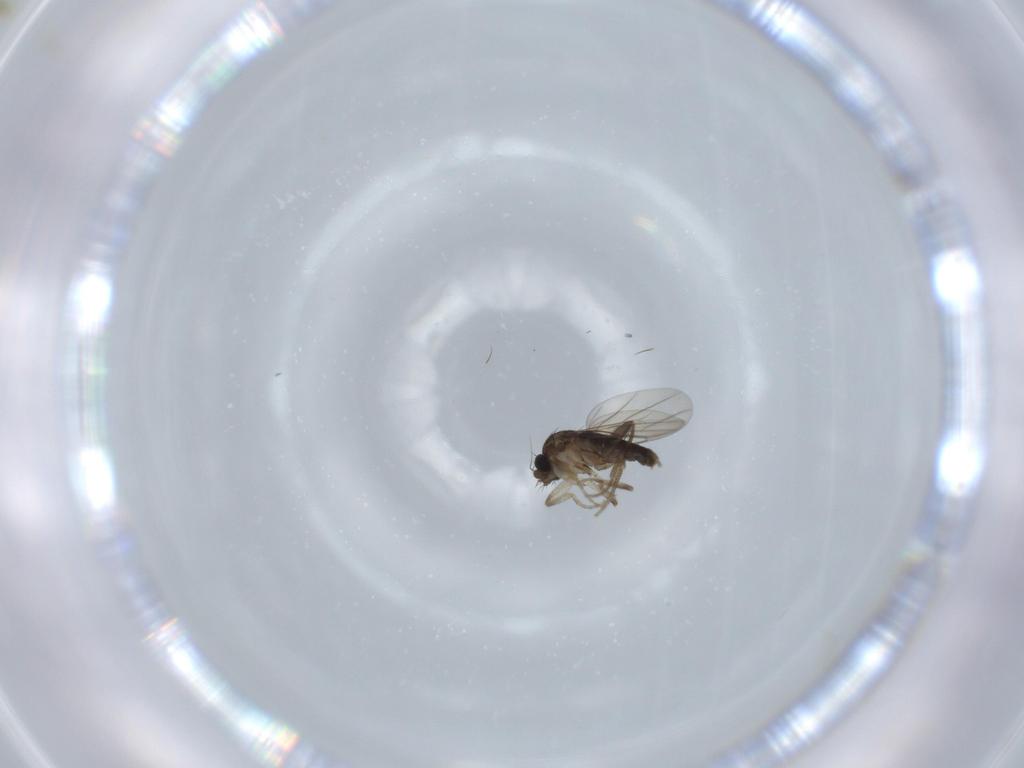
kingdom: Animalia
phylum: Arthropoda
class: Insecta
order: Diptera
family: Phoridae
